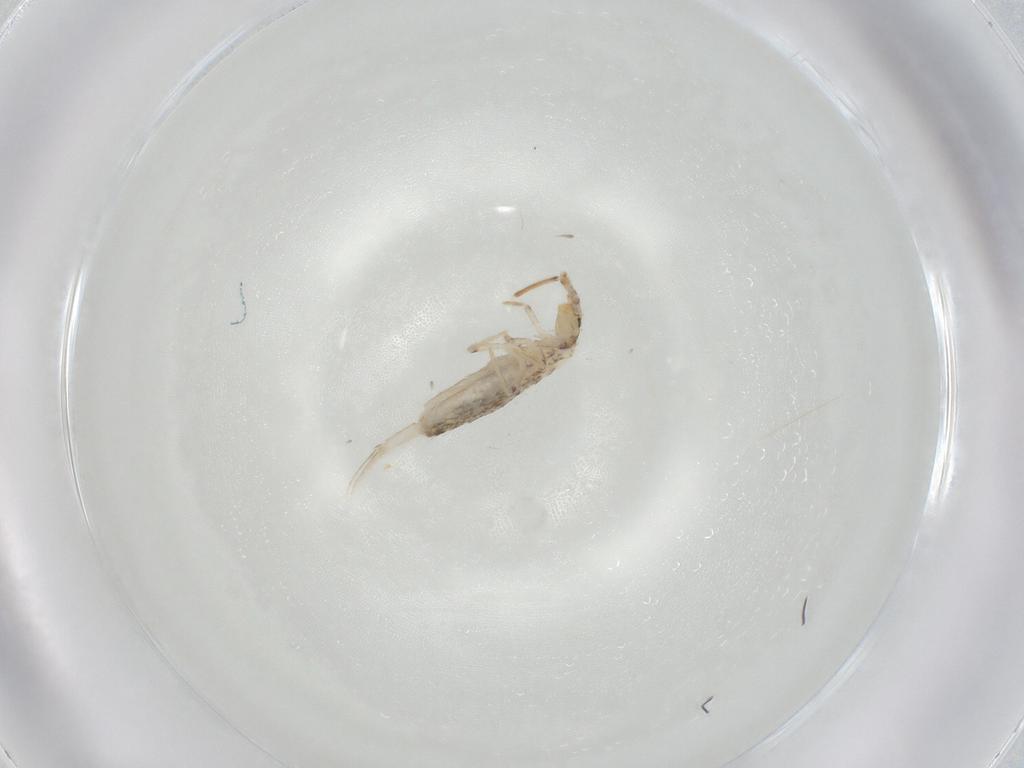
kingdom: Animalia
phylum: Arthropoda
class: Collembola
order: Entomobryomorpha
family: Entomobryidae
